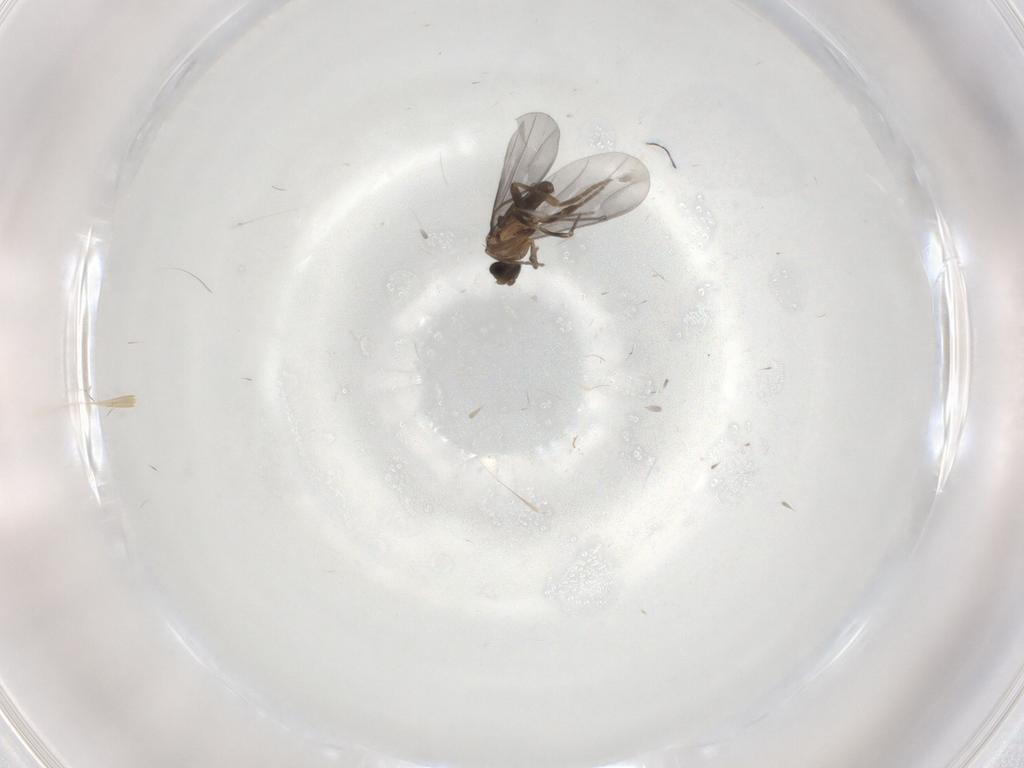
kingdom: Animalia
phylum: Arthropoda
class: Insecta
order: Diptera
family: Phoridae
